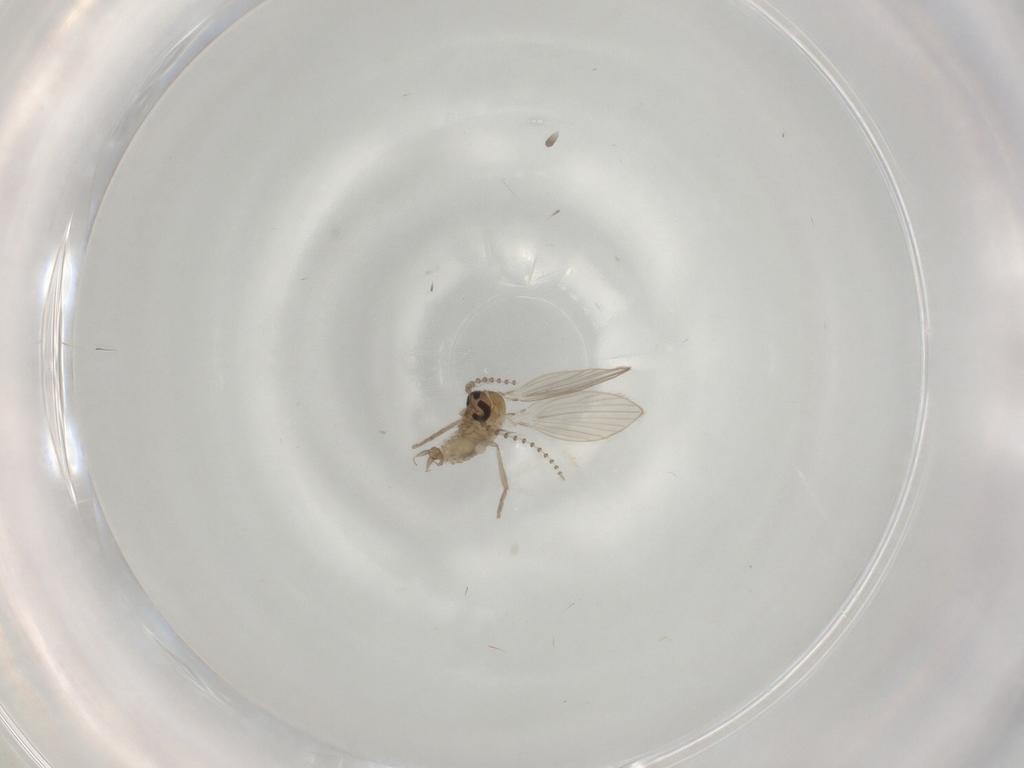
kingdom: Animalia
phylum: Arthropoda
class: Insecta
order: Diptera
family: Psychodidae
